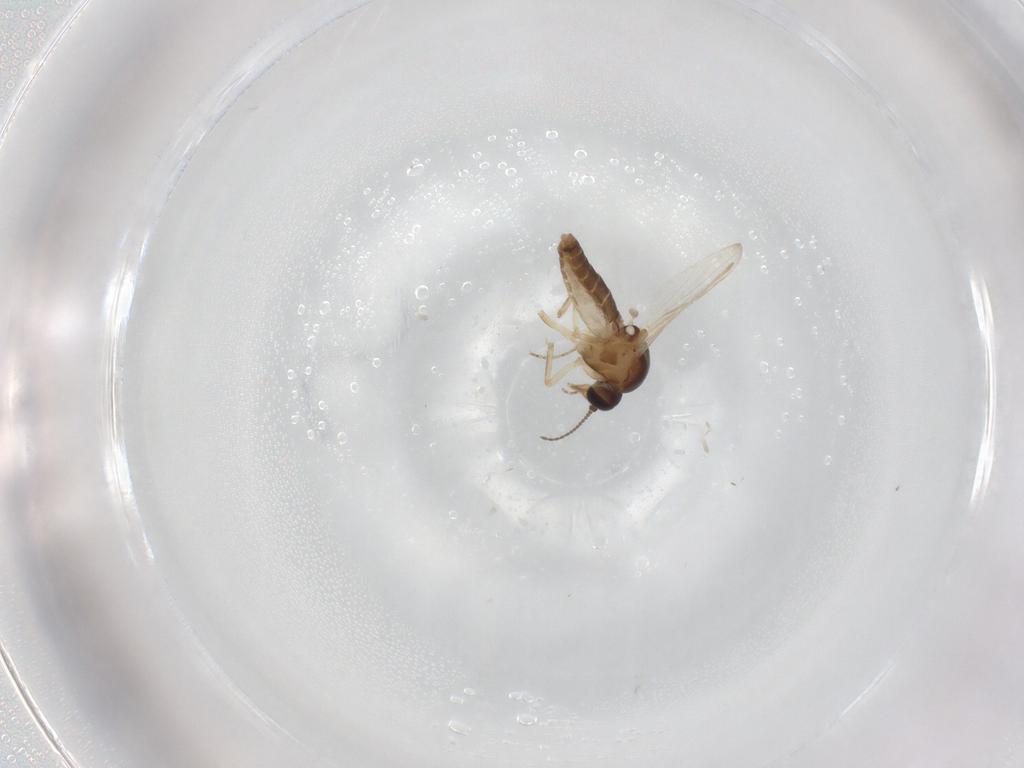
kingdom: Animalia
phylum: Arthropoda
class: Insecta
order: Diptera
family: Ceratopogonidae
